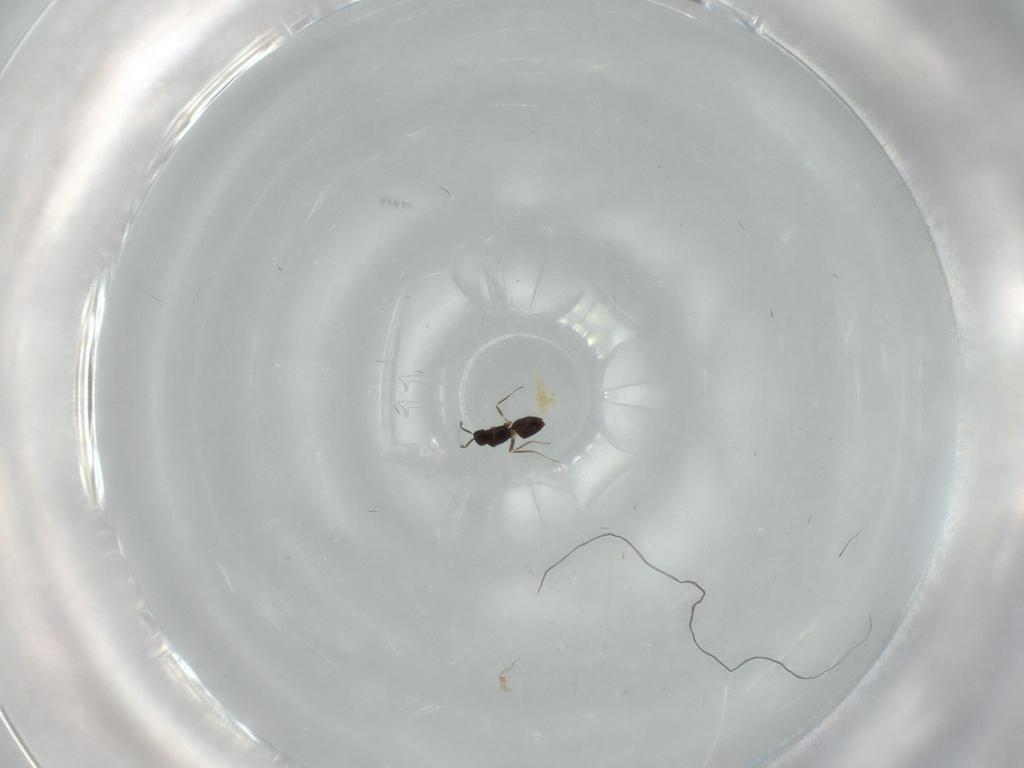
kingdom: Animalia
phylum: Arthropoda
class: Insecta
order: Hymenoptera
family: Mymaridae
